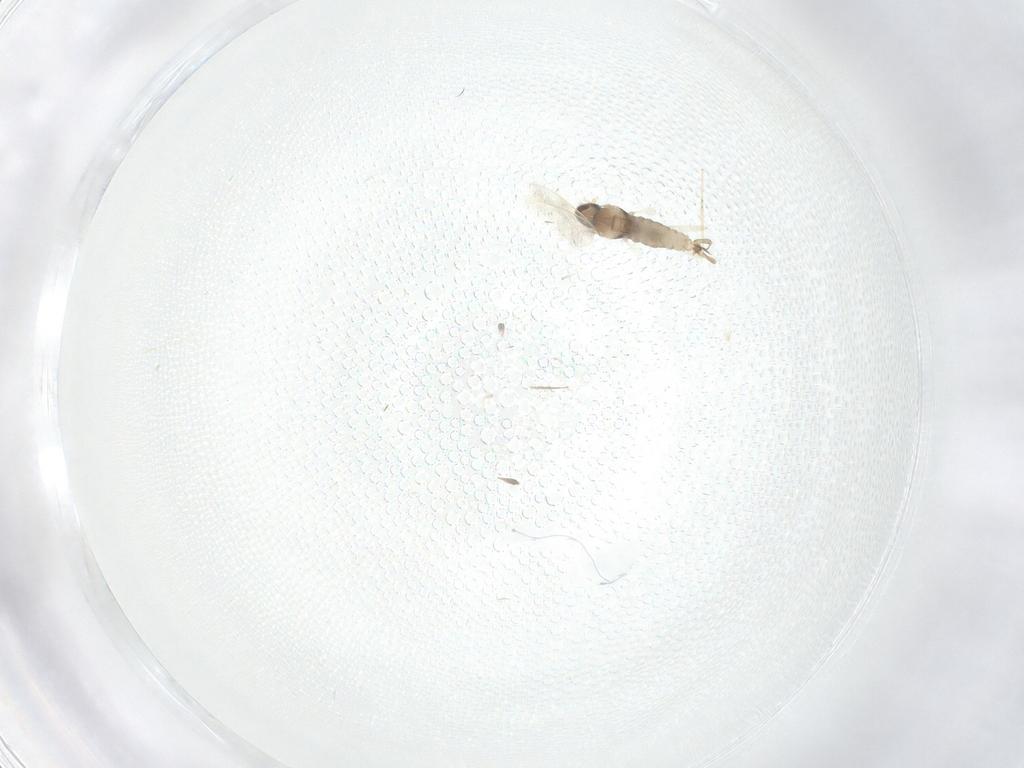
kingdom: Animalia
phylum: Arthropoda
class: Insecta
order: Diptera
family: Cecidomyiidae
